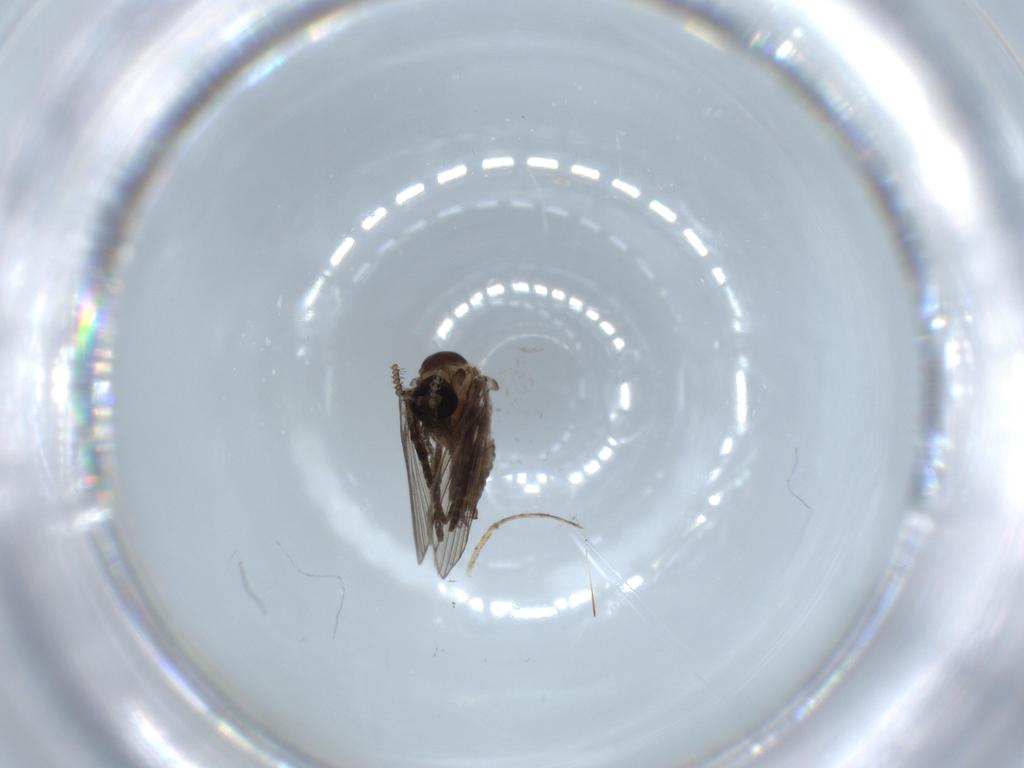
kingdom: Animalia
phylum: Arthropoda
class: Insecta
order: Diptera
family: Psychodidae
